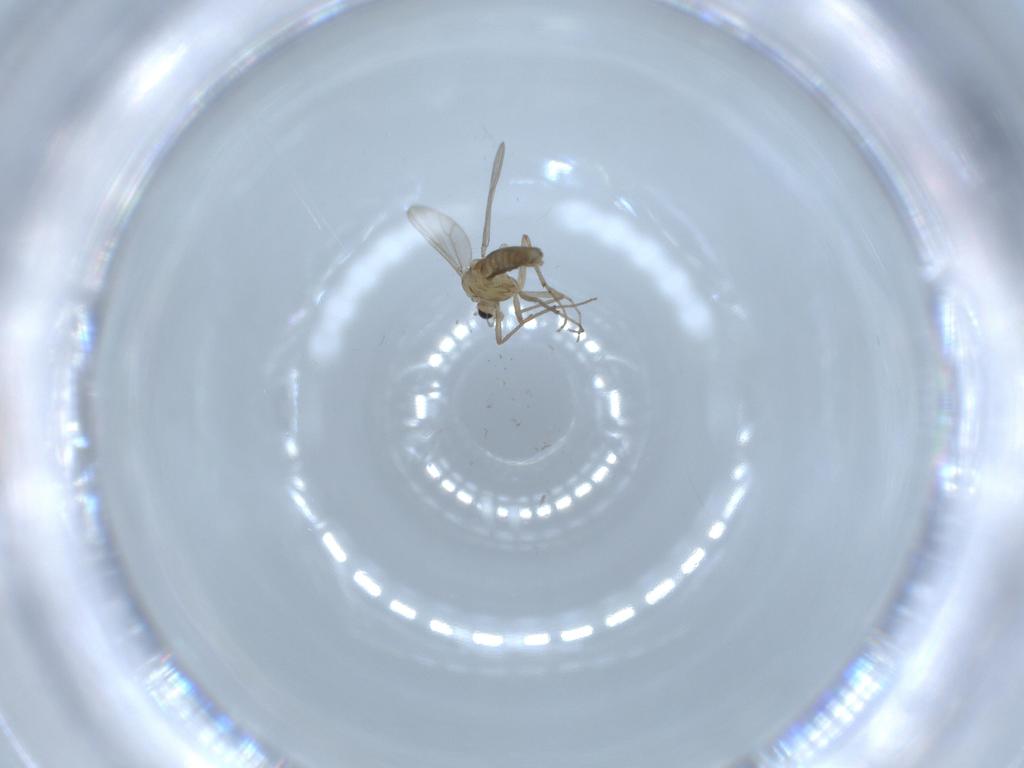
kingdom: Animalia
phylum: Arthropoda
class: Insecta
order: Diptera
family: Chironomidae
